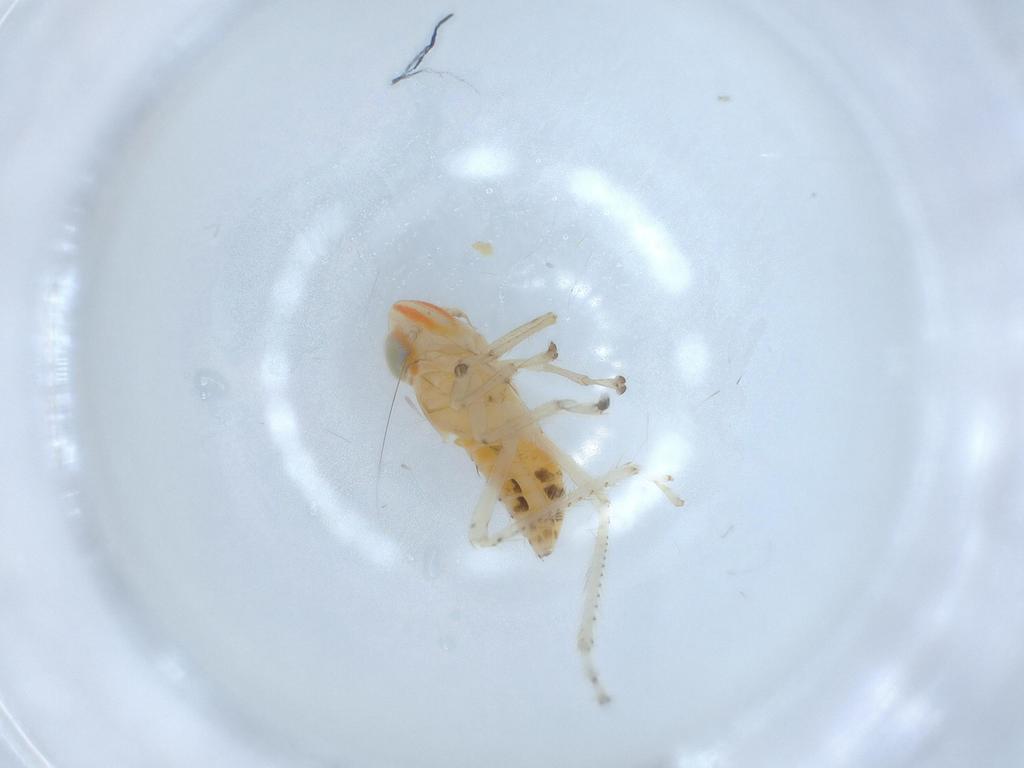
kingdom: Animalia
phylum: Arthropoda
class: Insecta
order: Hemiptera
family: Cicadellidae
